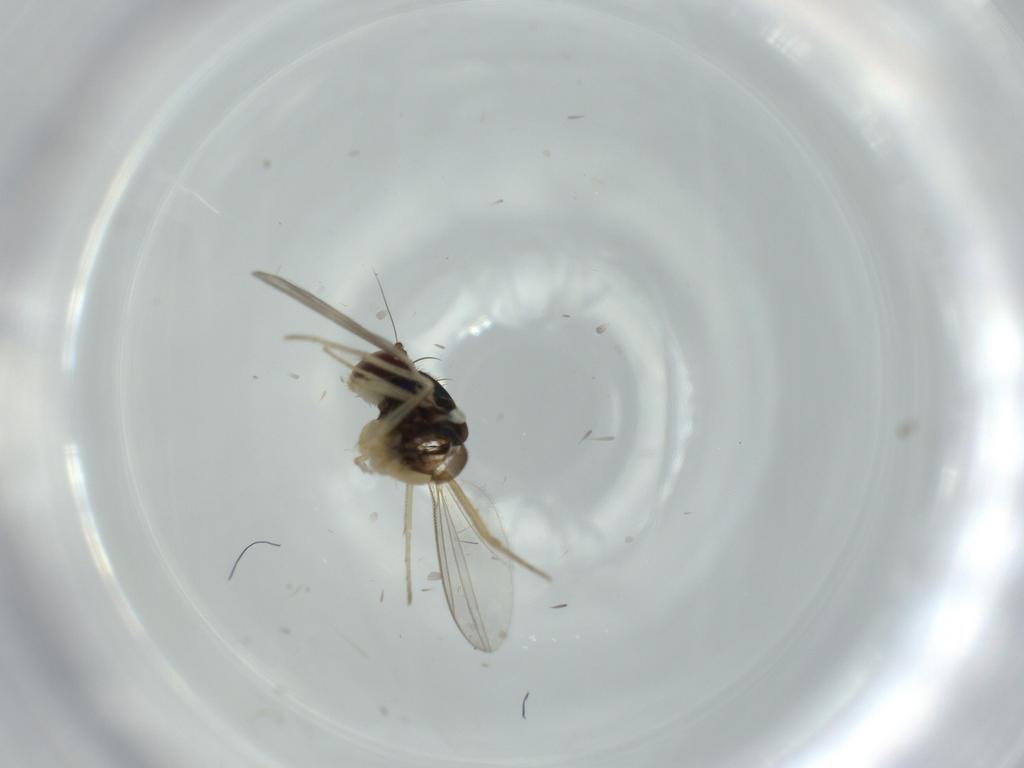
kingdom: Animalia
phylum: Arthropoda
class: Insecta
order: Diptera
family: Dolichopodidae
